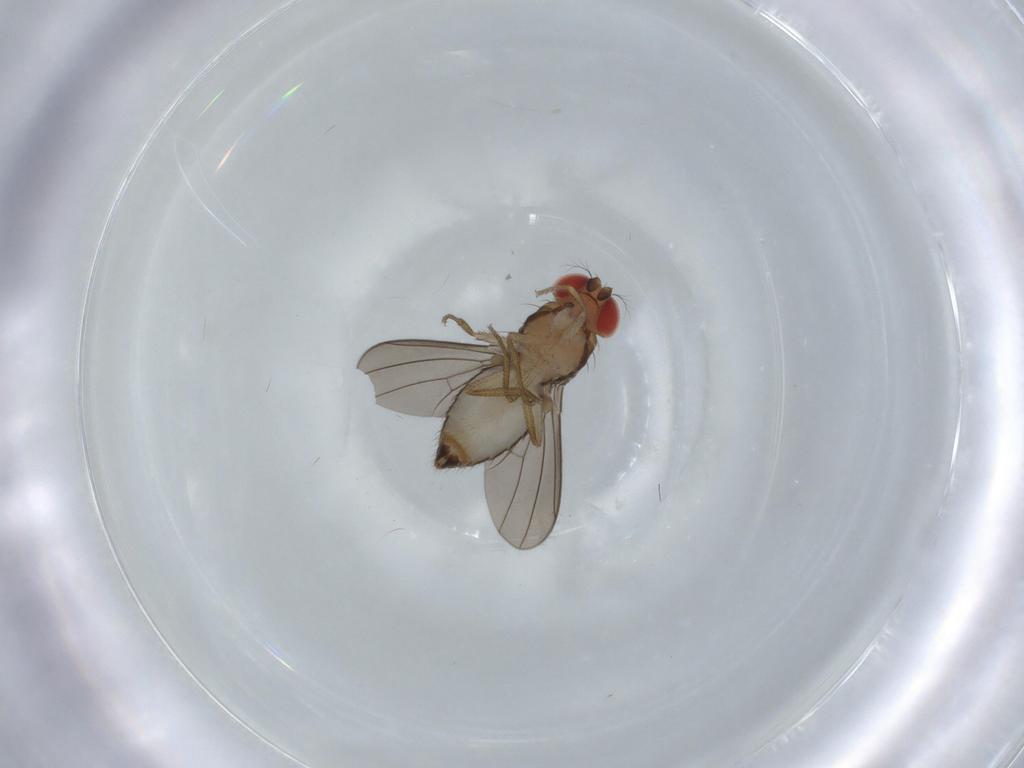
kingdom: Animalia
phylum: Arthropoda
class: Insecta
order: Diptera
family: Drosophilidae
